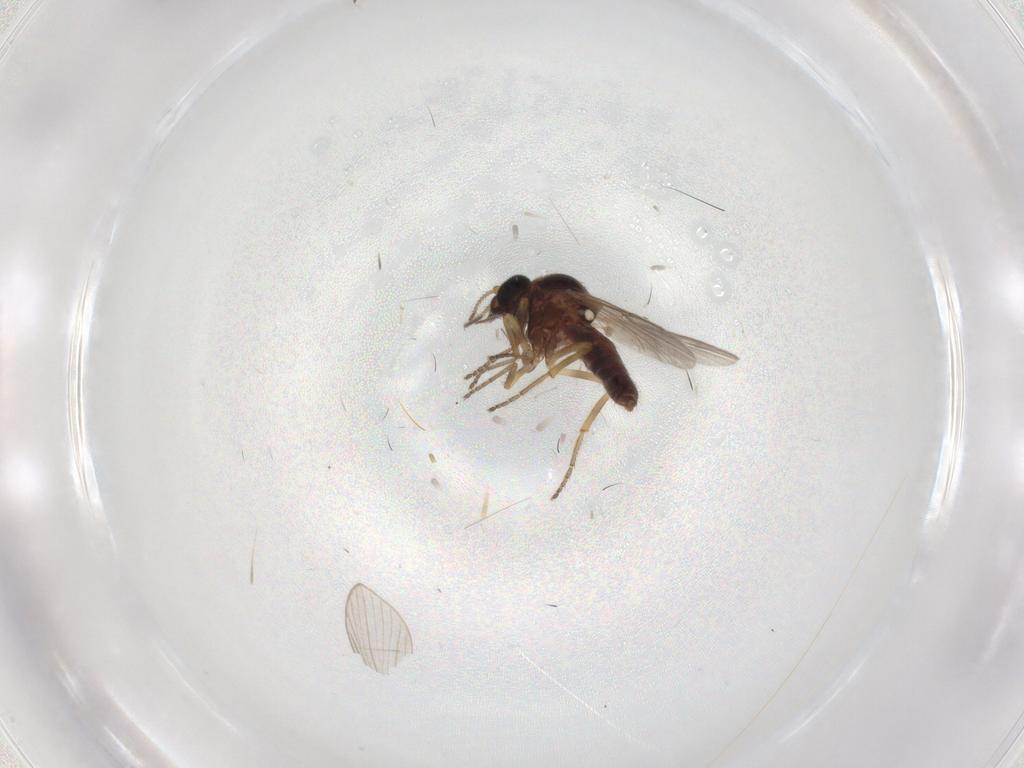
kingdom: Animalia
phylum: Arthropoda
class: Insecta
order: Diptera
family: Ceratopogonidae
